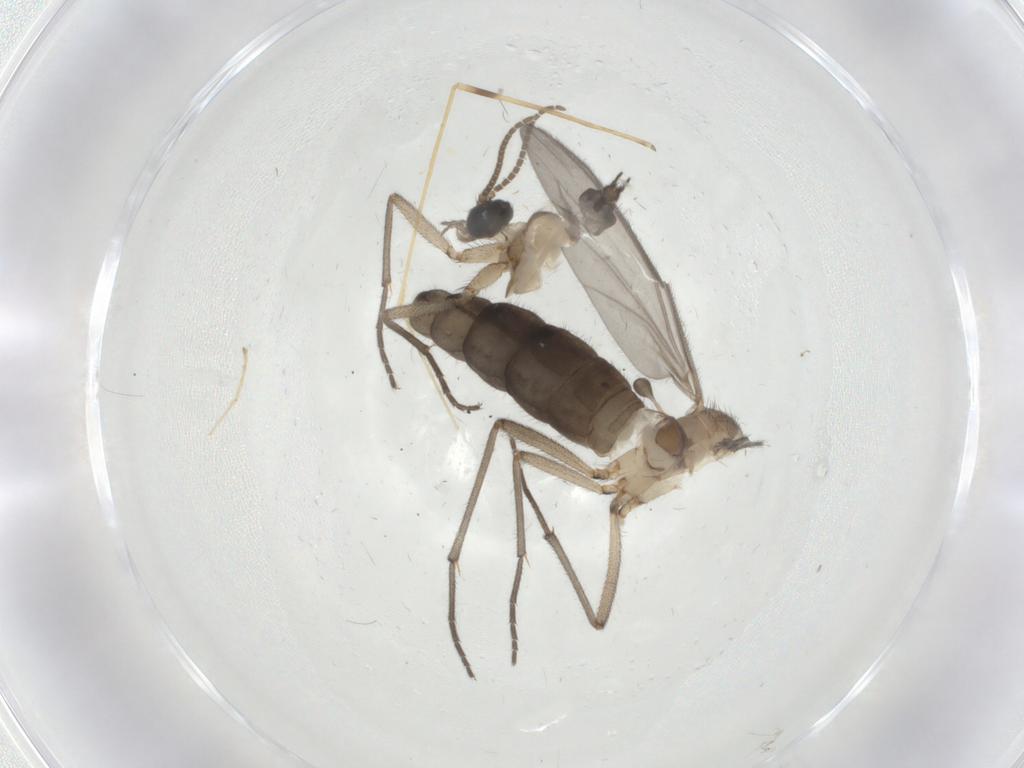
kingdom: Animalia
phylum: Arthropoda
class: Insecta
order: Diptera
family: Limoniidae
